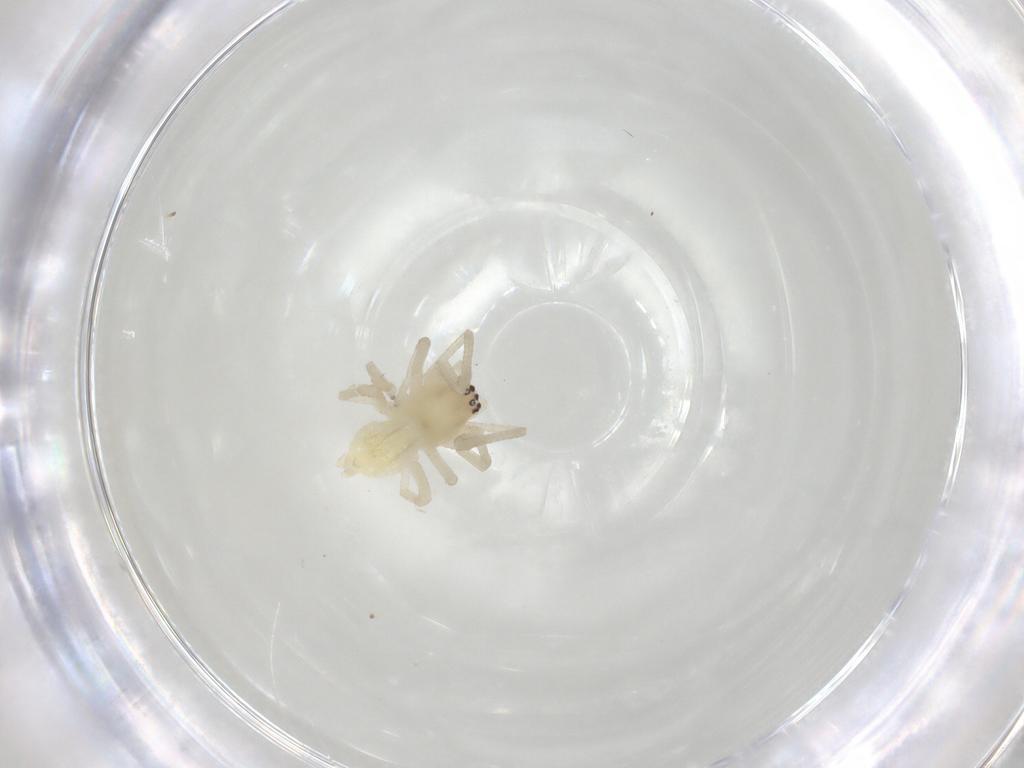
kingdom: Animalia
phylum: Arthropoda
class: Arachnida
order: Araneae
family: Cheiracanthiidae
